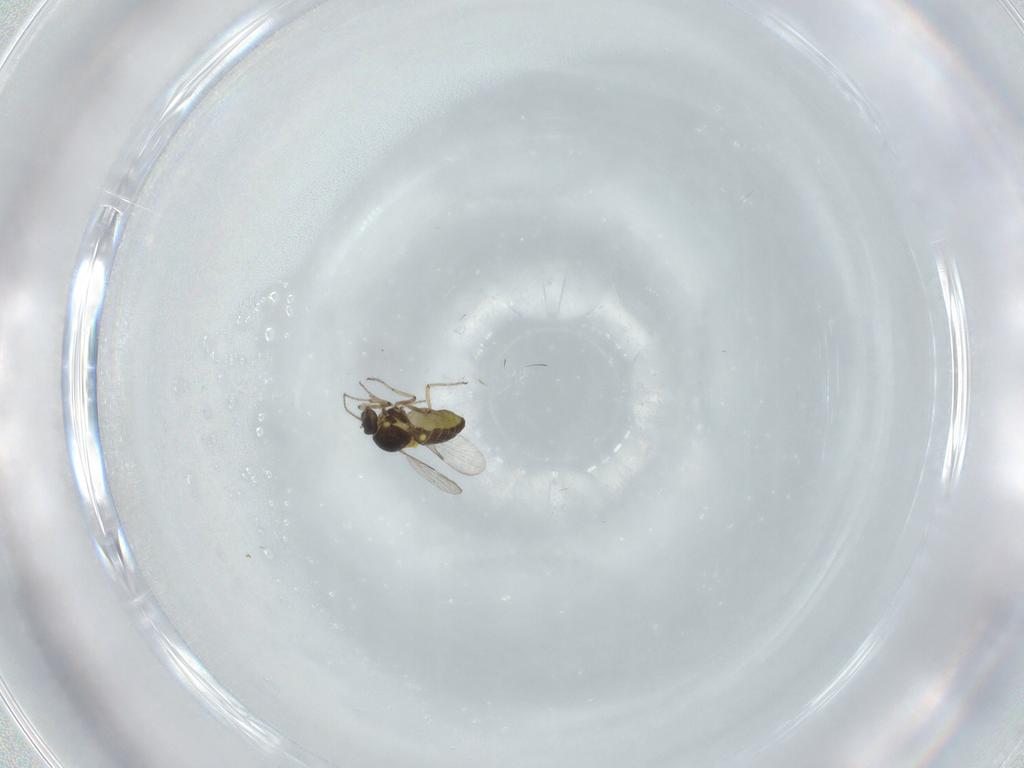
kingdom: Animalia
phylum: Arthropoda
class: Insecta
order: Diptera
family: Ceratopogonidae
